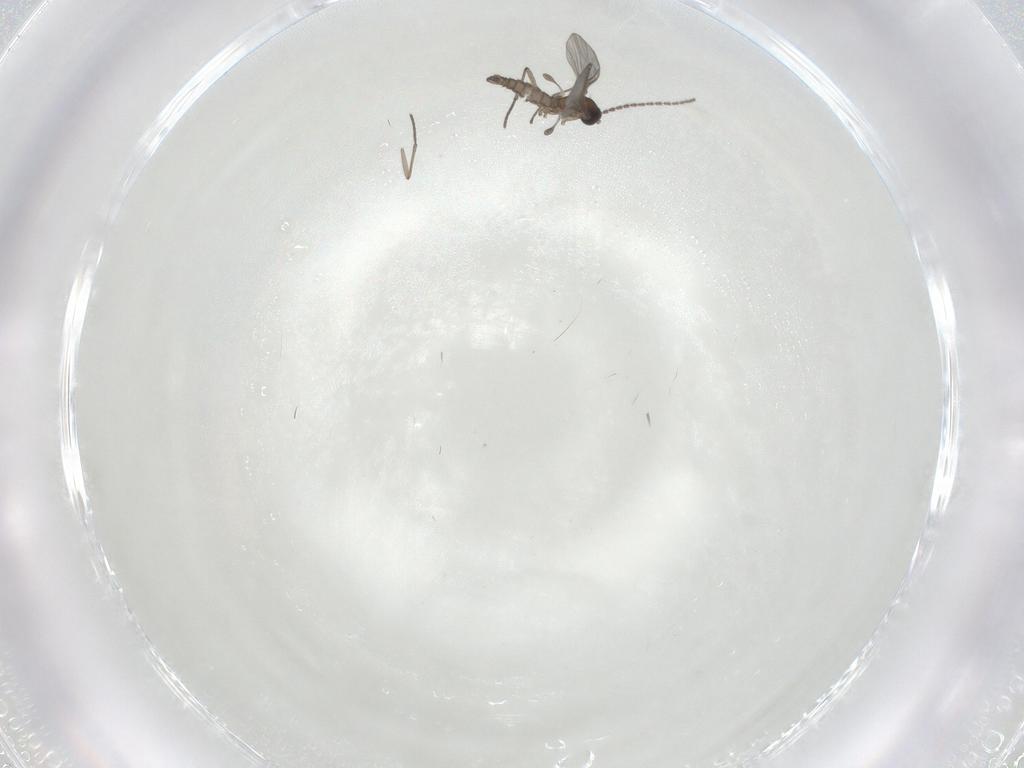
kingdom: Animalia
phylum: Arthropoda
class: Insecta
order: Diptera
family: Sciaridae
